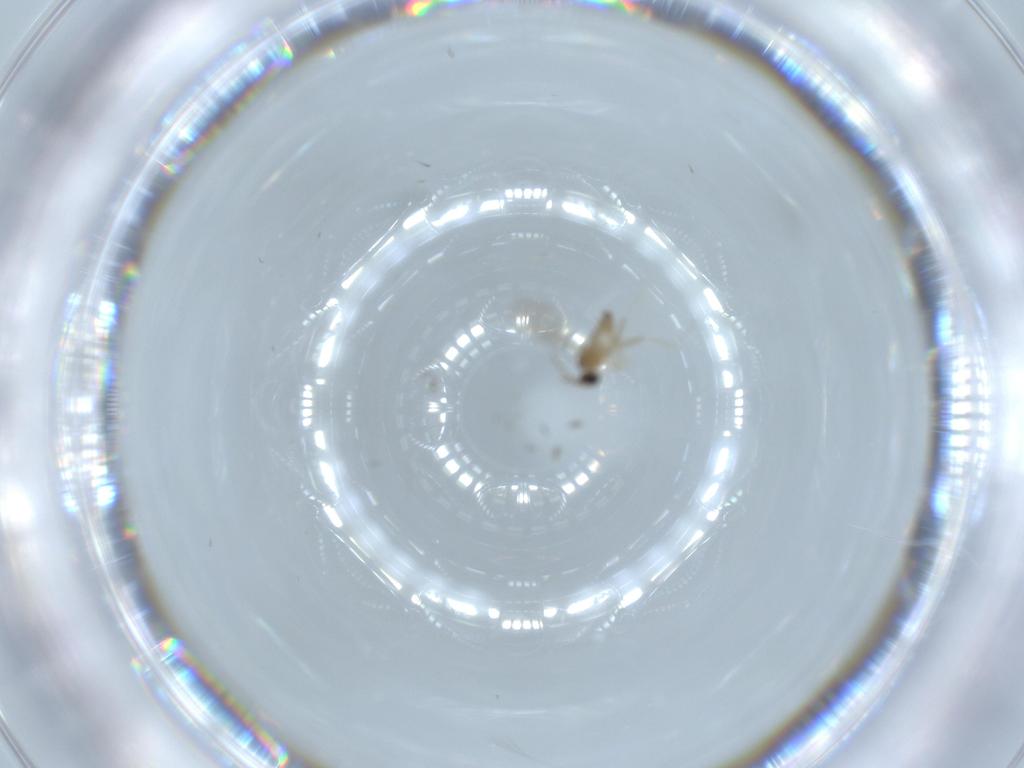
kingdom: Animalia
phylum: Arthropoda
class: Insecta
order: Diptera
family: Cecidomyiidae
